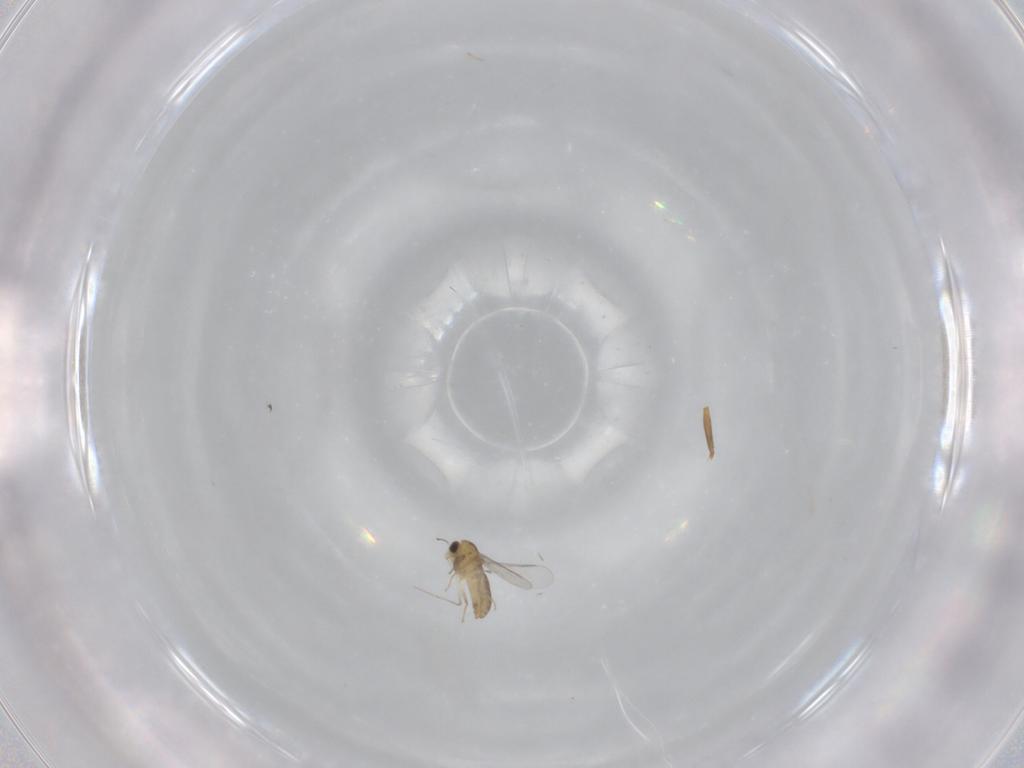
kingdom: Animalia
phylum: Arthropoda
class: Insecta
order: Diptera
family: Chironomidae
